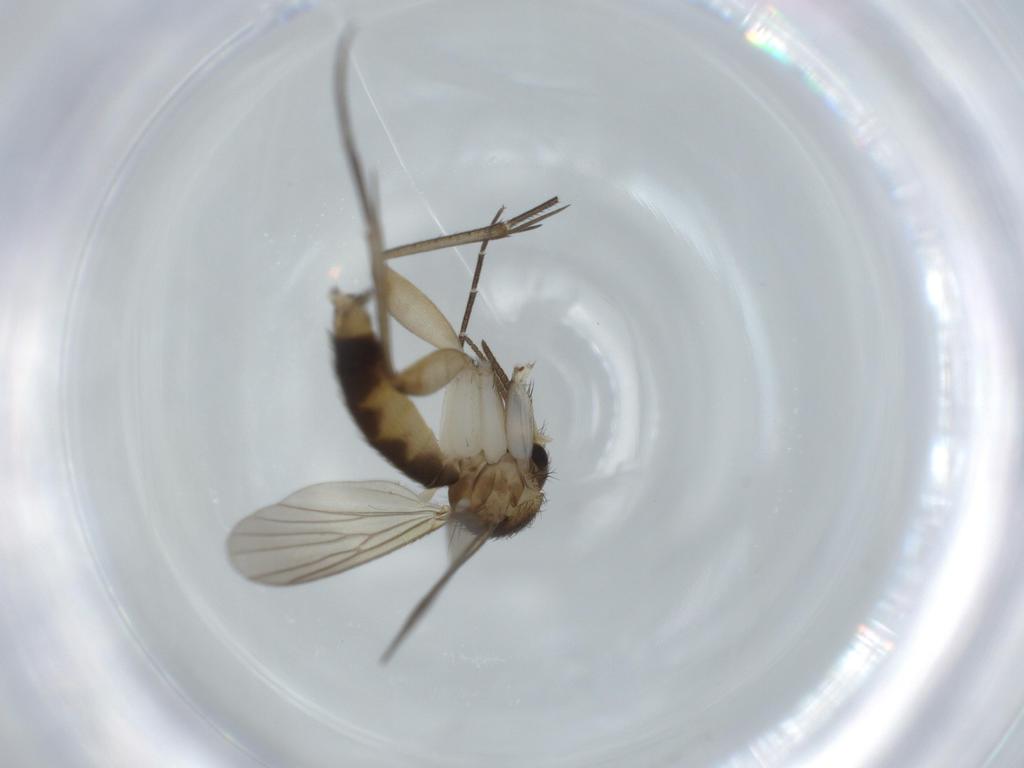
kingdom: Animalia
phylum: Arthropoda
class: Insecta
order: Diptera
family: Mycetophilidae
